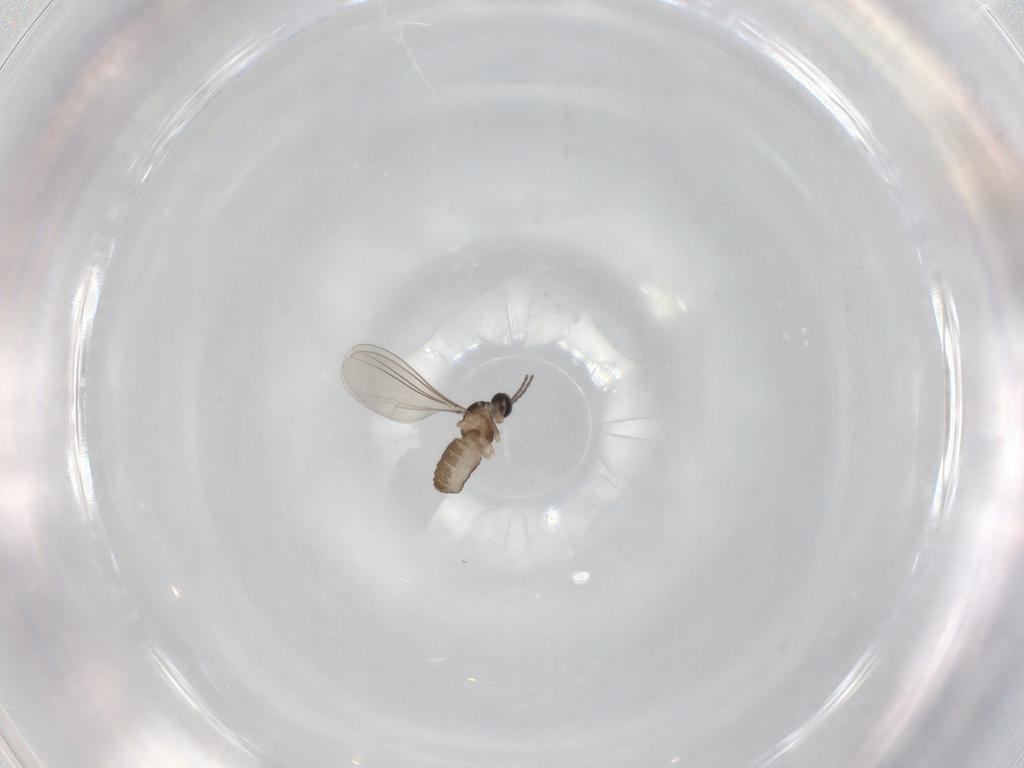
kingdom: Animalia
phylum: Arthropoda
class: Insecta
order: Diptera
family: Cecidomyiidae
